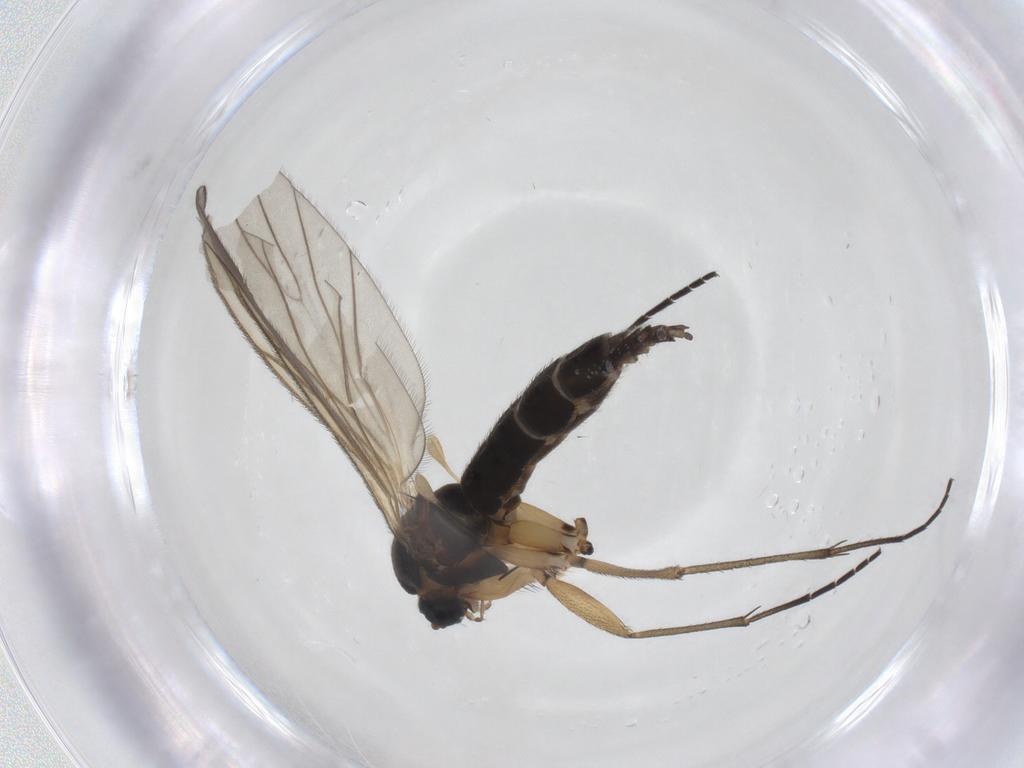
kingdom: Animalia
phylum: Arthropoda
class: Insecta
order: Diptera
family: Sciaridae
